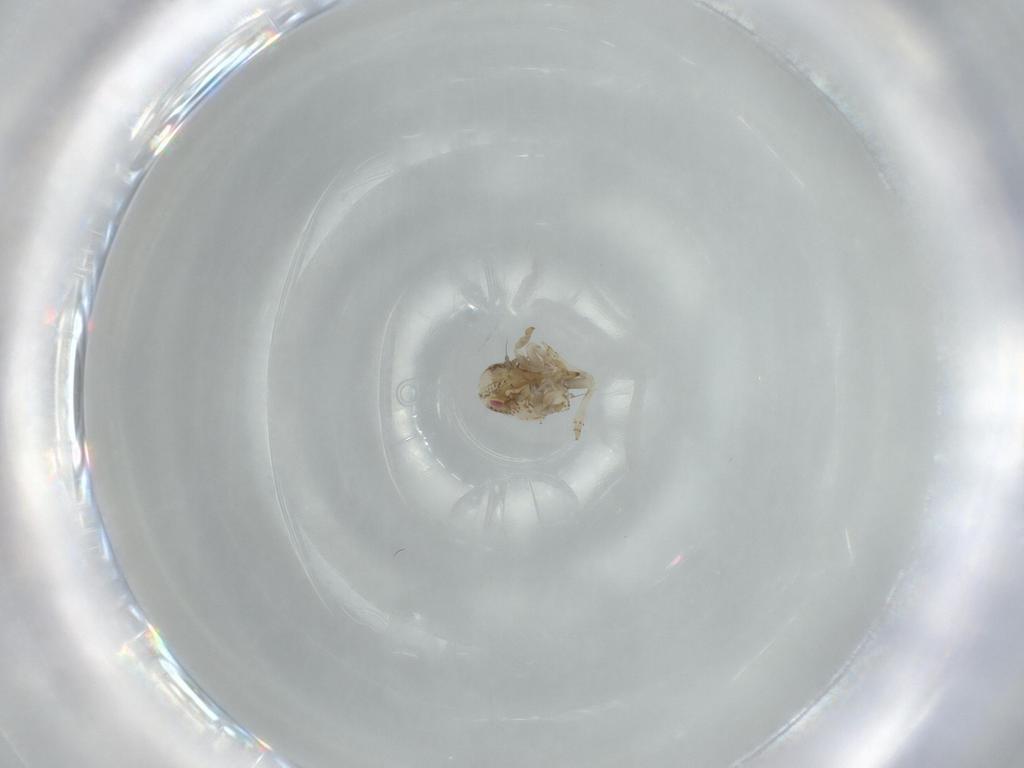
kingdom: Animalia
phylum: Arthropoda
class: Insecta
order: Hemiptera
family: Acanaloniidae
